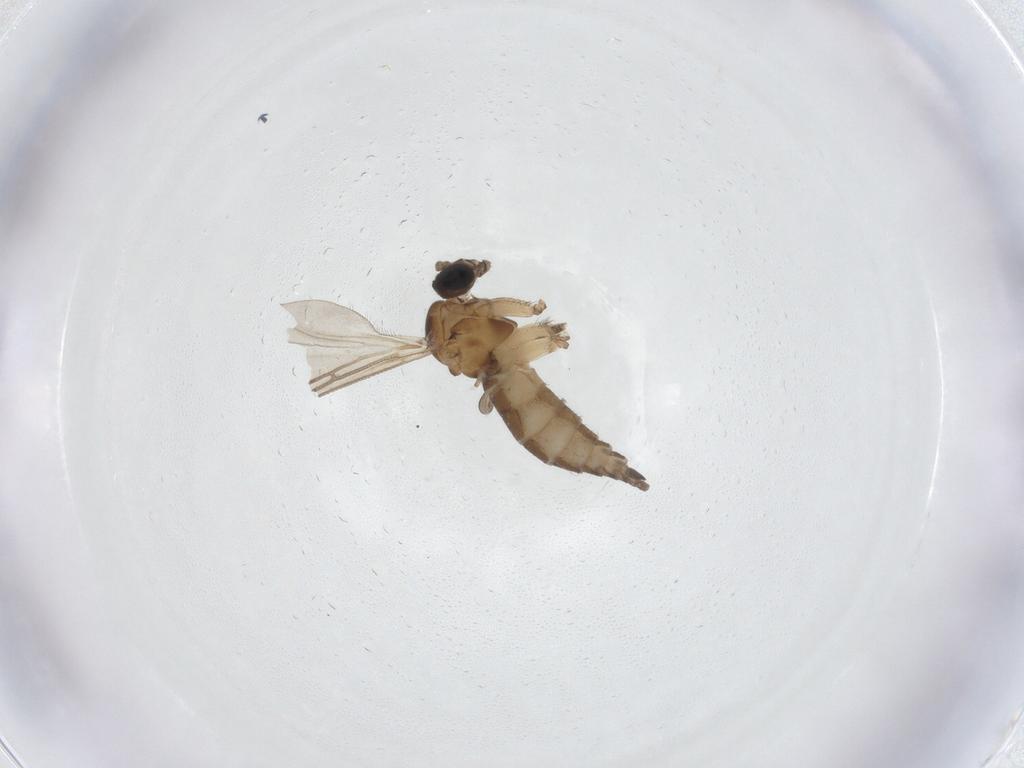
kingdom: Animalia
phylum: Arthropoda
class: Insecta
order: Diptera
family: Sciaridae
